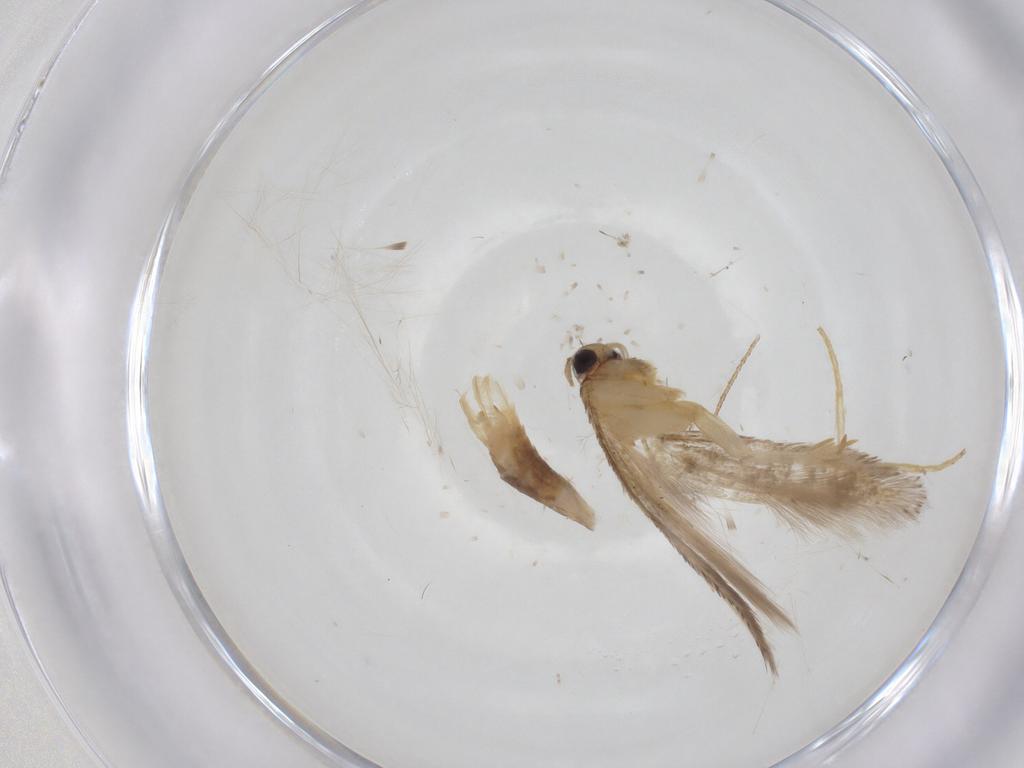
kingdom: Animalia
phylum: Arthropoda
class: Insecta
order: Lepidoptera
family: Gelechiidae
